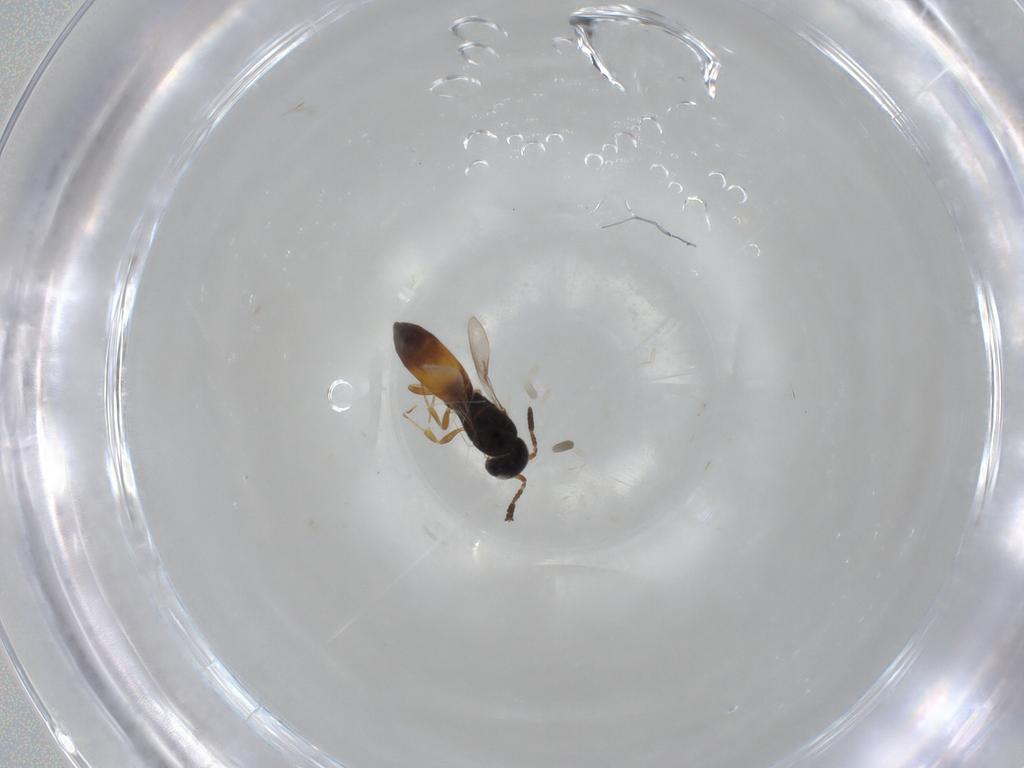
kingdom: Animalia
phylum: Arthropoda
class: Insecta
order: Hymenoptera
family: Scelionidae
